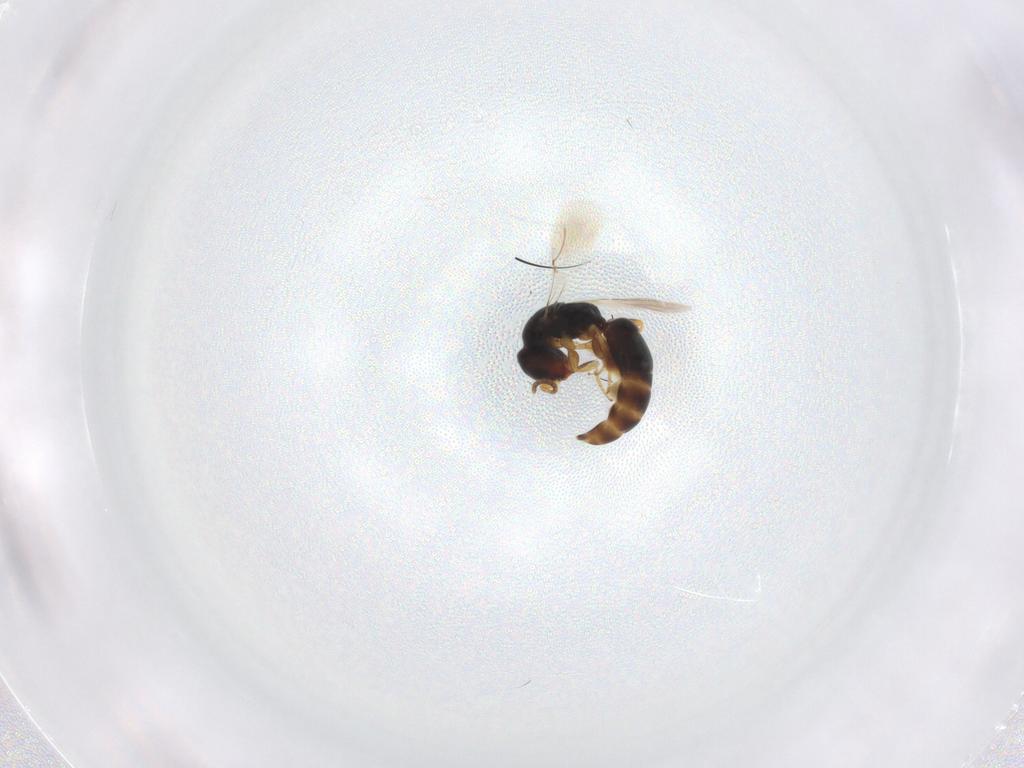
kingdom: Animalia
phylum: Arthropoda
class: Insecta
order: Hymenoptera
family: Bethylidae
